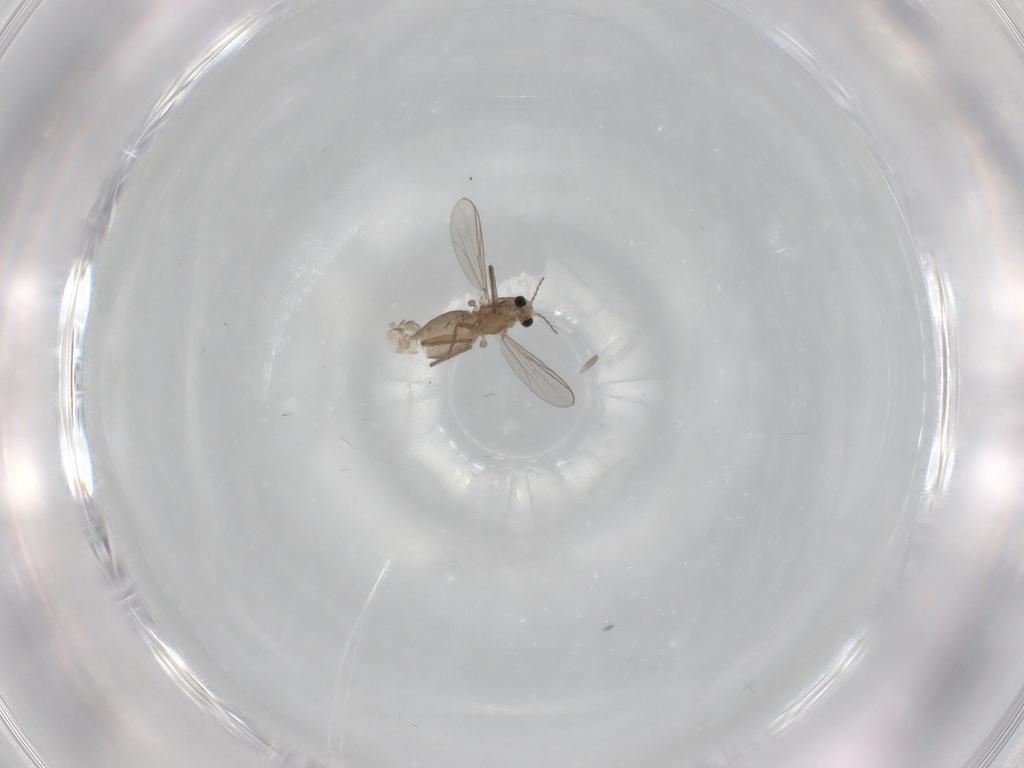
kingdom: Animalia
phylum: Arthropoda
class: Insecta
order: Diptera
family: Chironomidae
